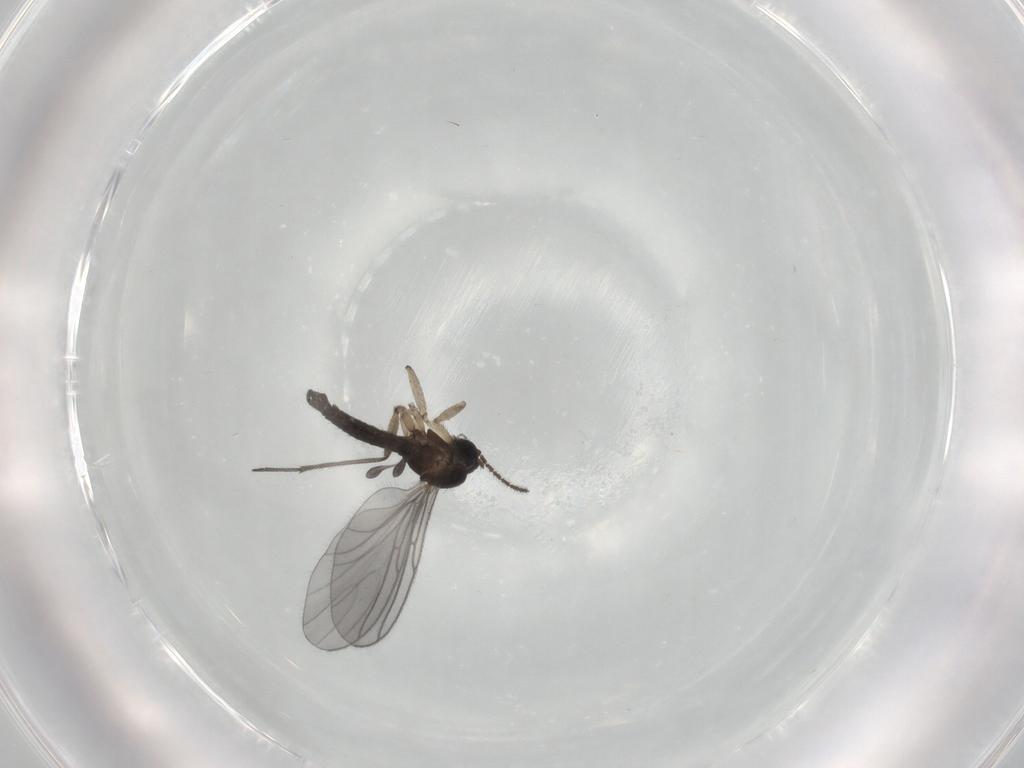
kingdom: Animalia
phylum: Arthropoda
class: Insecta
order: Diptera
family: Sciaridae
